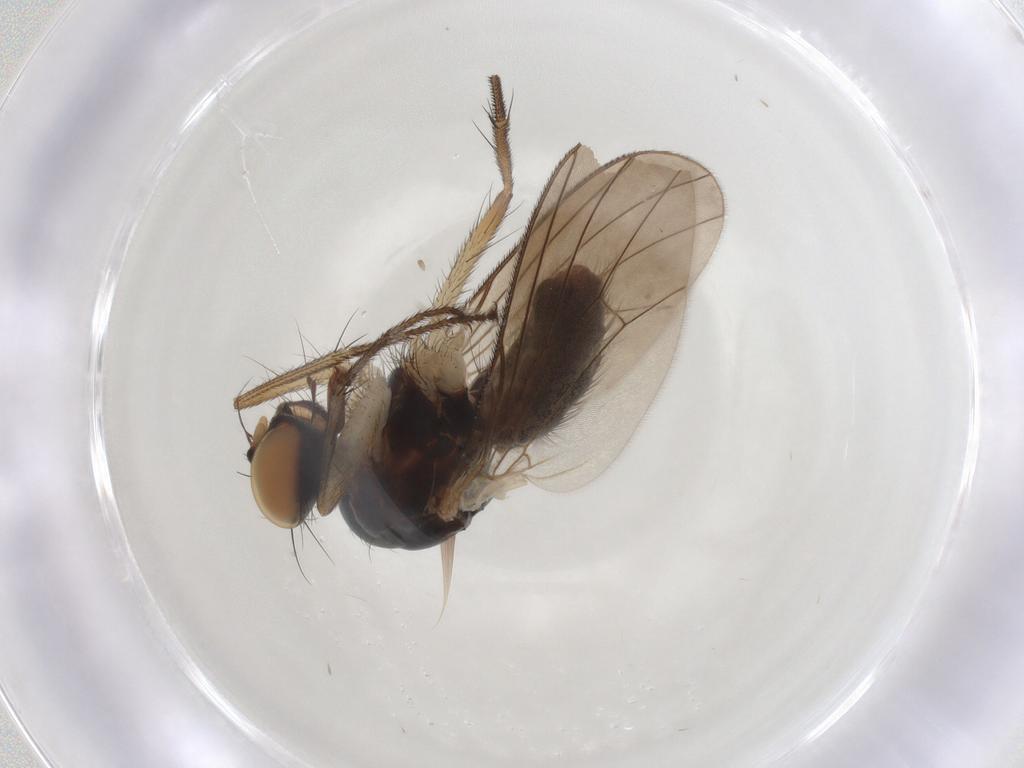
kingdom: Animalia
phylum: Arthropoda
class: Insecta
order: Diptera
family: Muscidae
